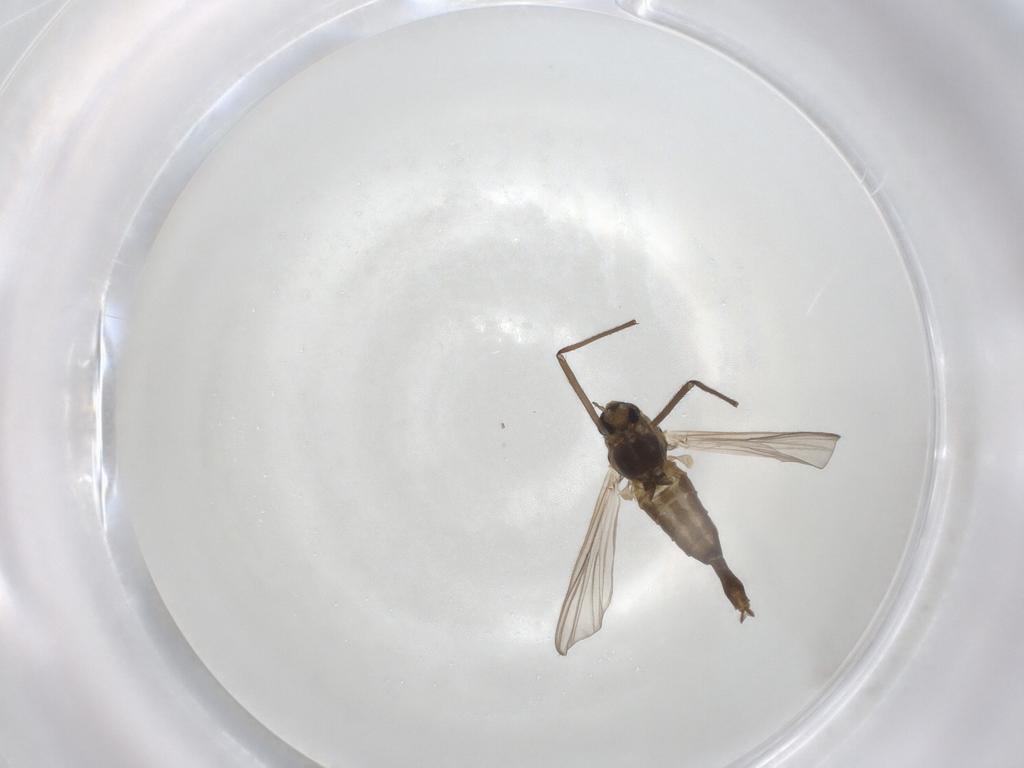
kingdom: Animalia
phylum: Arthropoda
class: Insecta
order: Diptera
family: Chironomidae
